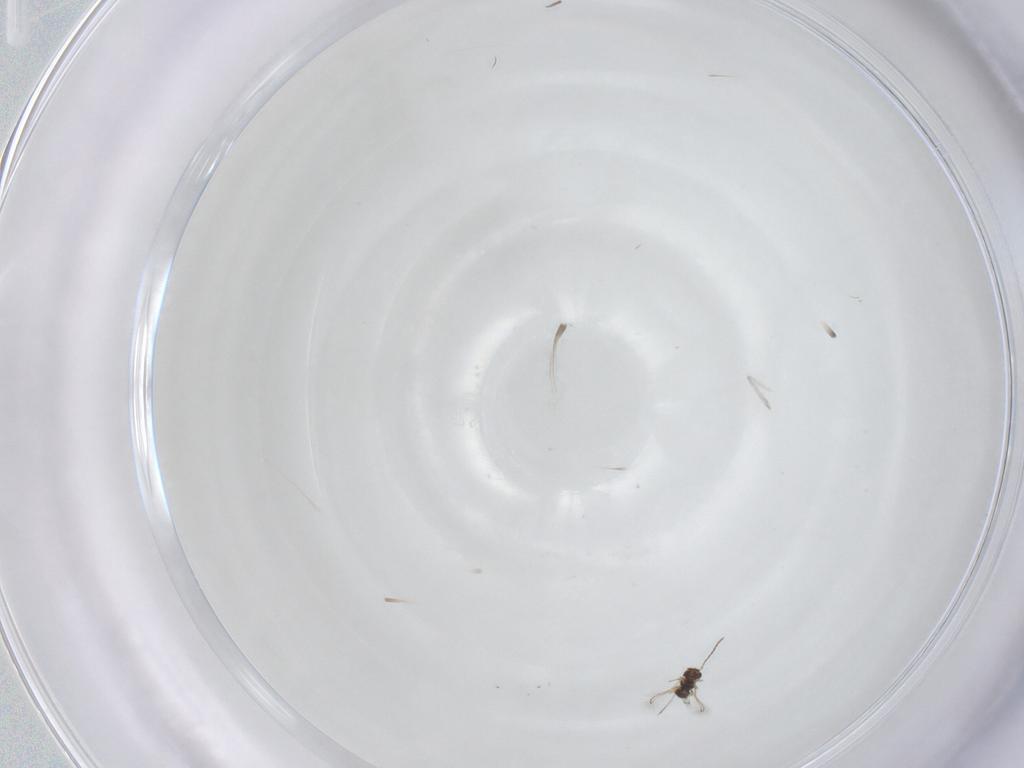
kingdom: Animalia
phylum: Arthropoda
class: Insecta
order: Diptera
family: Psychodidae
